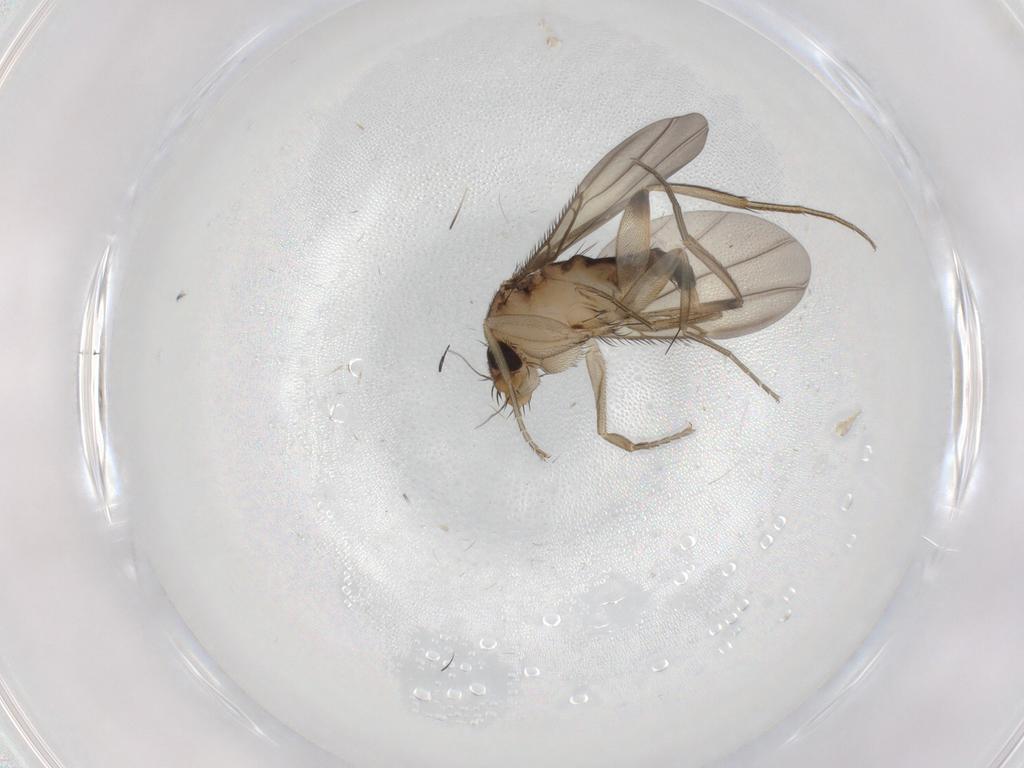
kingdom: Animalia
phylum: Arthropoda
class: Insecta
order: Diptera
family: Phoridae
